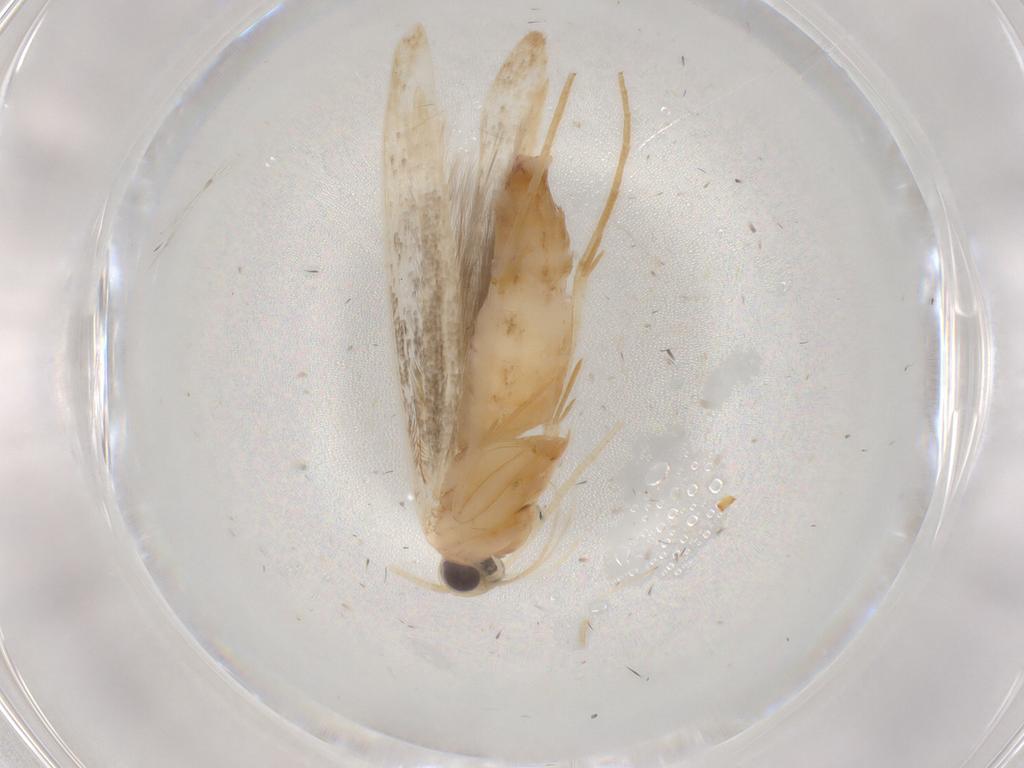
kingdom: Animalia
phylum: Arthropoda
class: Insecta
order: Lepidoptera
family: Coleophoridae
